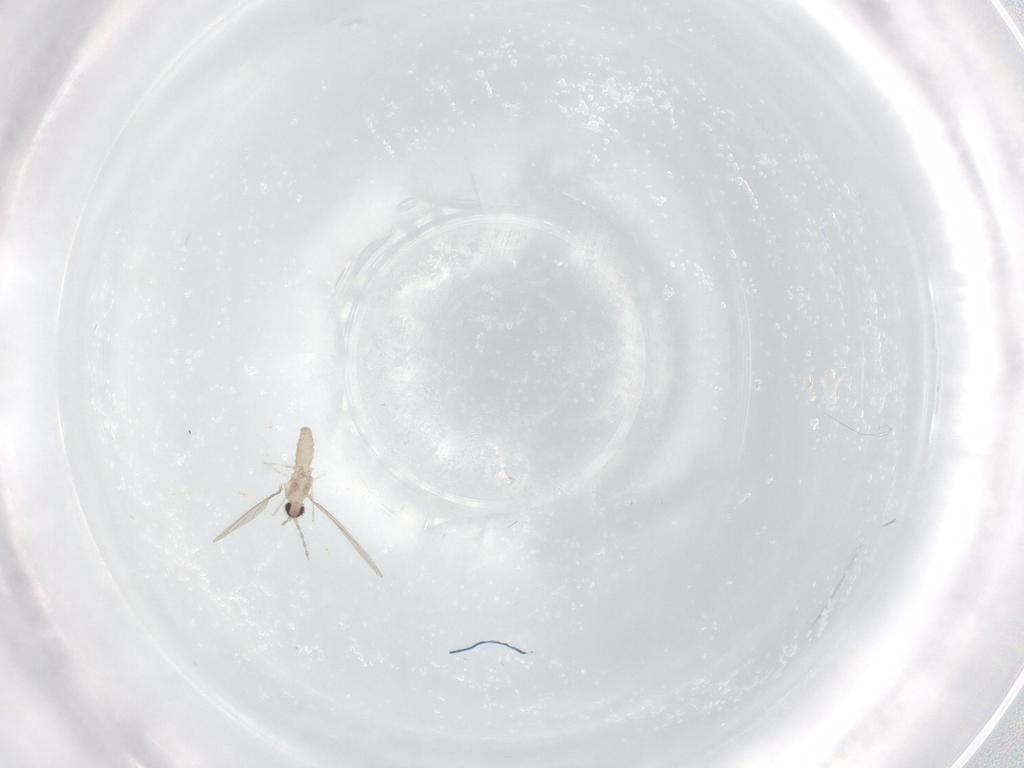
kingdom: Animalia
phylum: Arthropoda
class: Insecta
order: Diptera
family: Cecidomyiidae
